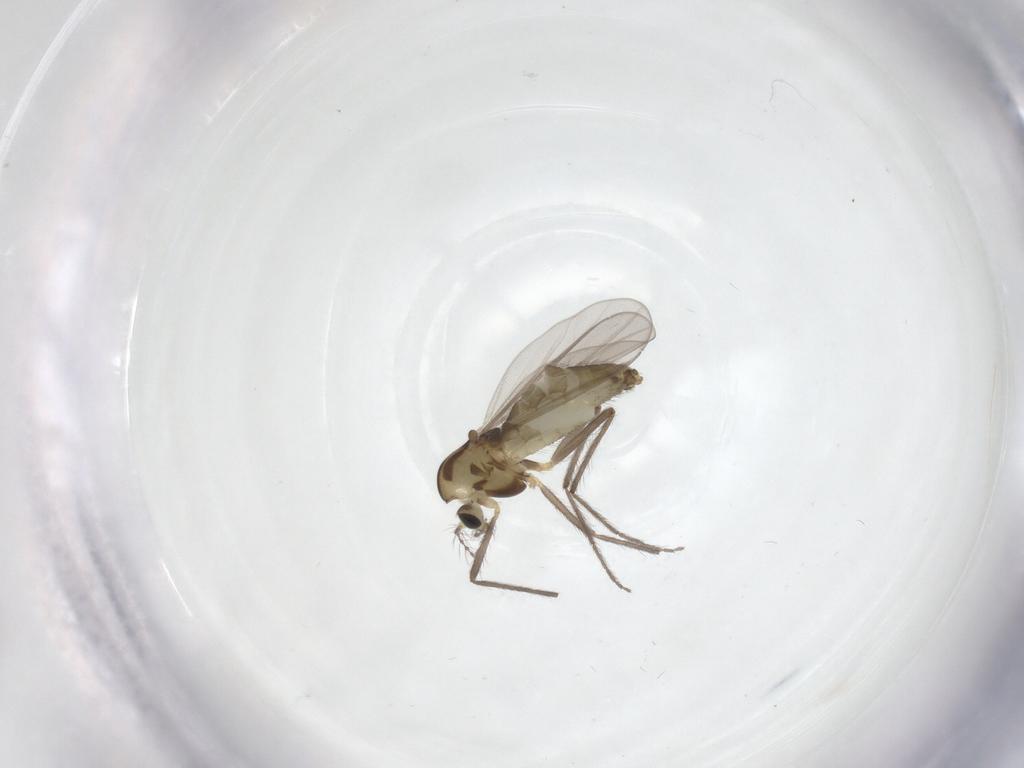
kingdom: Animalia
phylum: Arthropoda
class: Insecta
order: Diptera
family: Chironomidae
